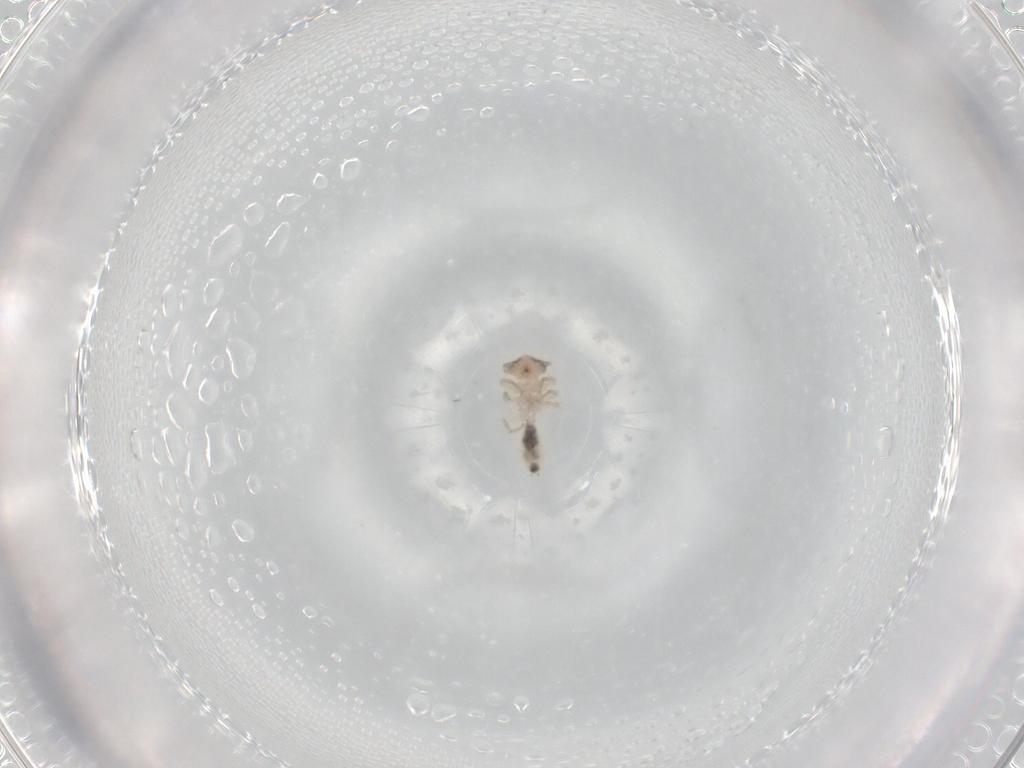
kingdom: Animalia
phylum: Arthropoda
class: Insecta
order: Psocodea
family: Lepidopsocidae
